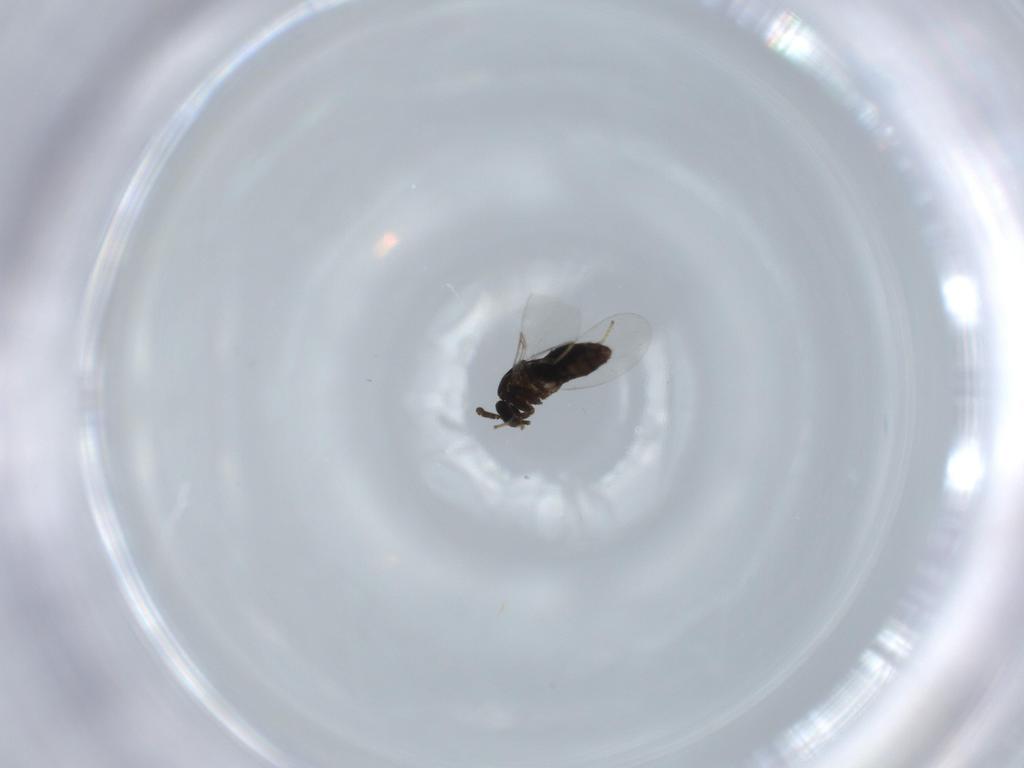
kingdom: Animalia
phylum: Arthropoda
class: Insecta
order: Diptera
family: Scatopsidae
